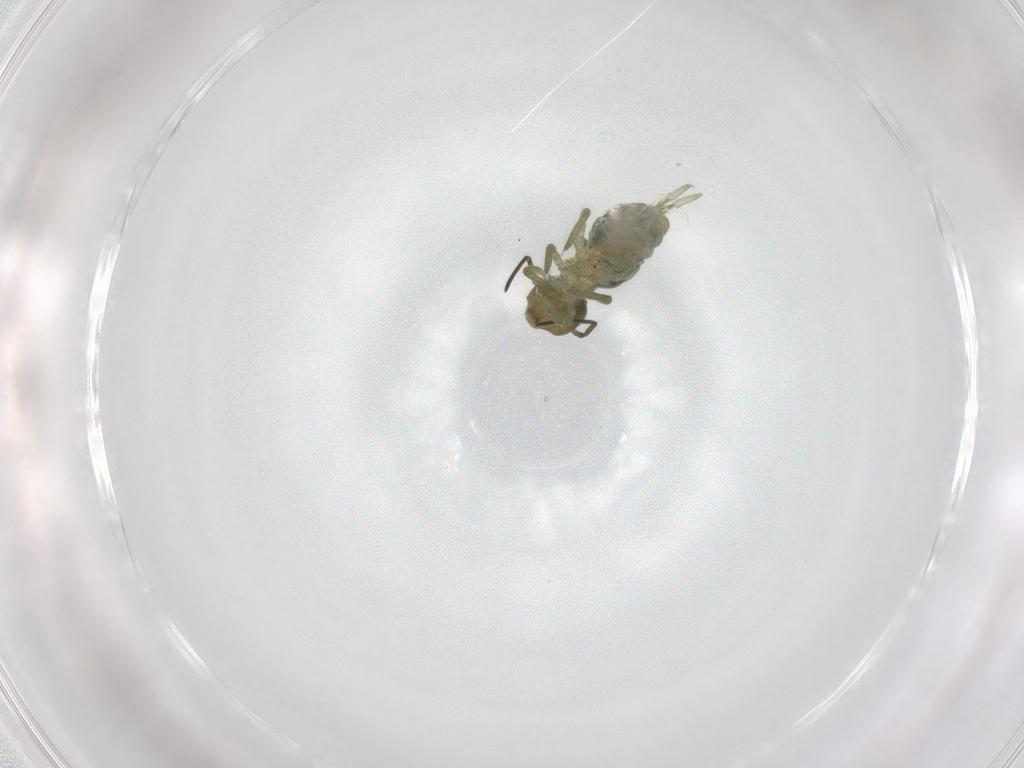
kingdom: Animalia
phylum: Arthropoda
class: Collembola
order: Symphypleona
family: Sminthuridae
